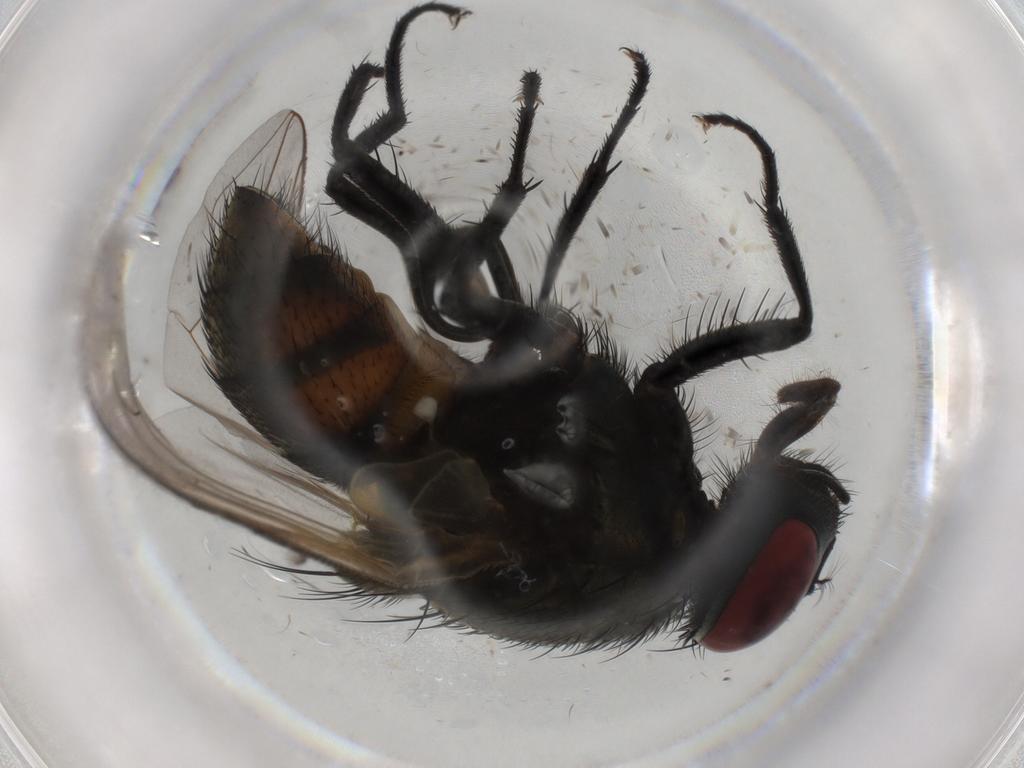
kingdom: Animalia
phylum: Arthropoda
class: Insecta
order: Diptera
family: Muscidae
